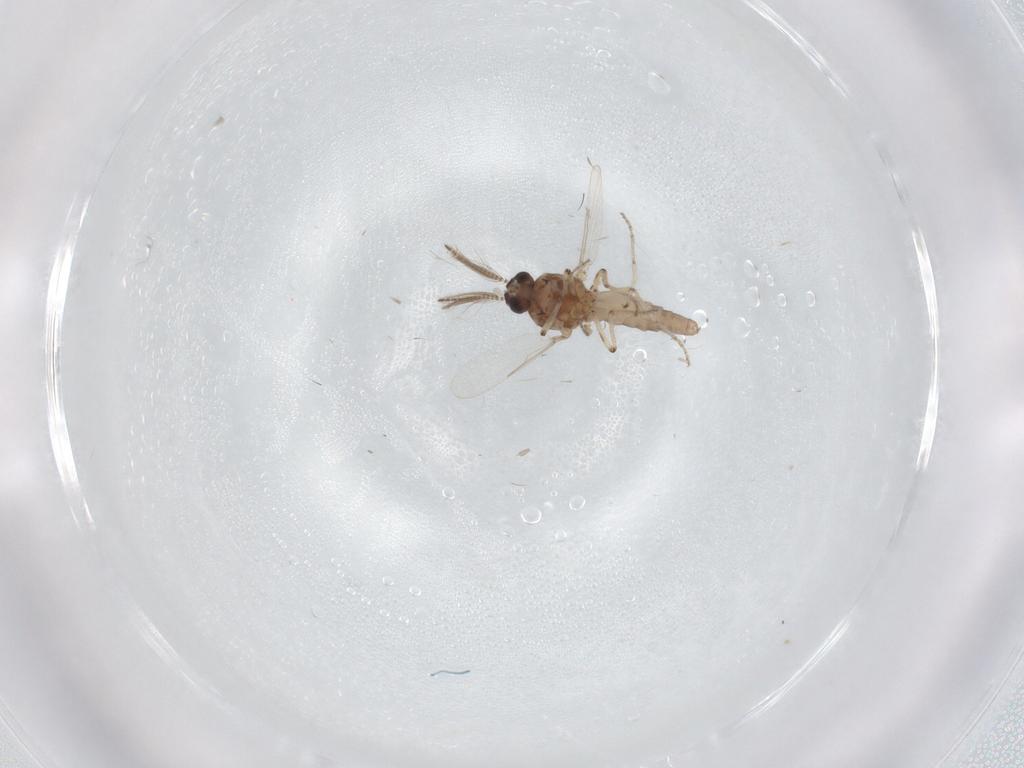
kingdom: Animalia
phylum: Arthropoda
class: Insecta
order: Diptera
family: Ceratopogonidae
